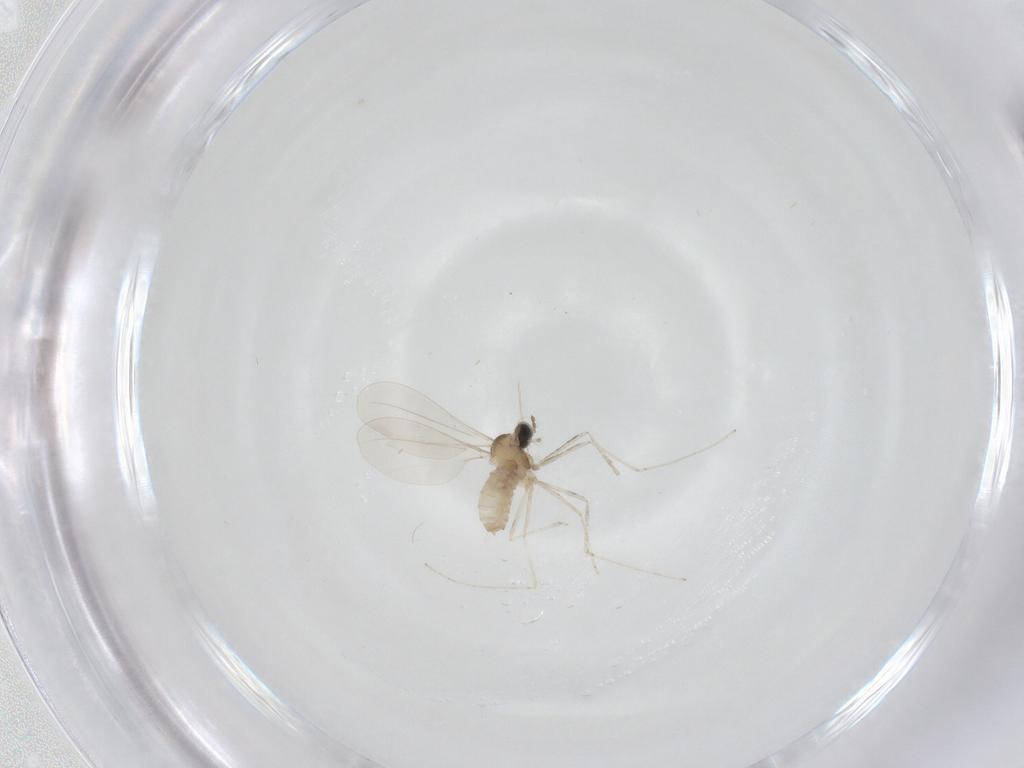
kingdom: Animalia
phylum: Arthropoda
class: Insecta
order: Diptera
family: Cecidomyiidae
